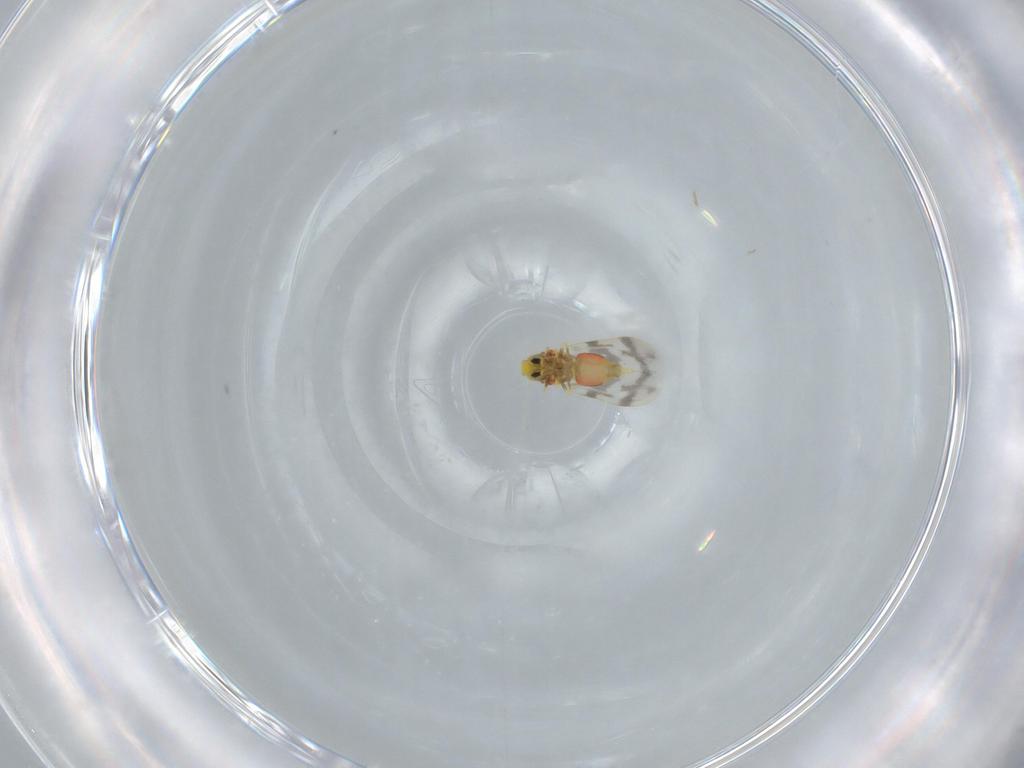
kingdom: Animalia
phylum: Arthropoda
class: Insecta
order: Hemiptera
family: Aleyrodidae
